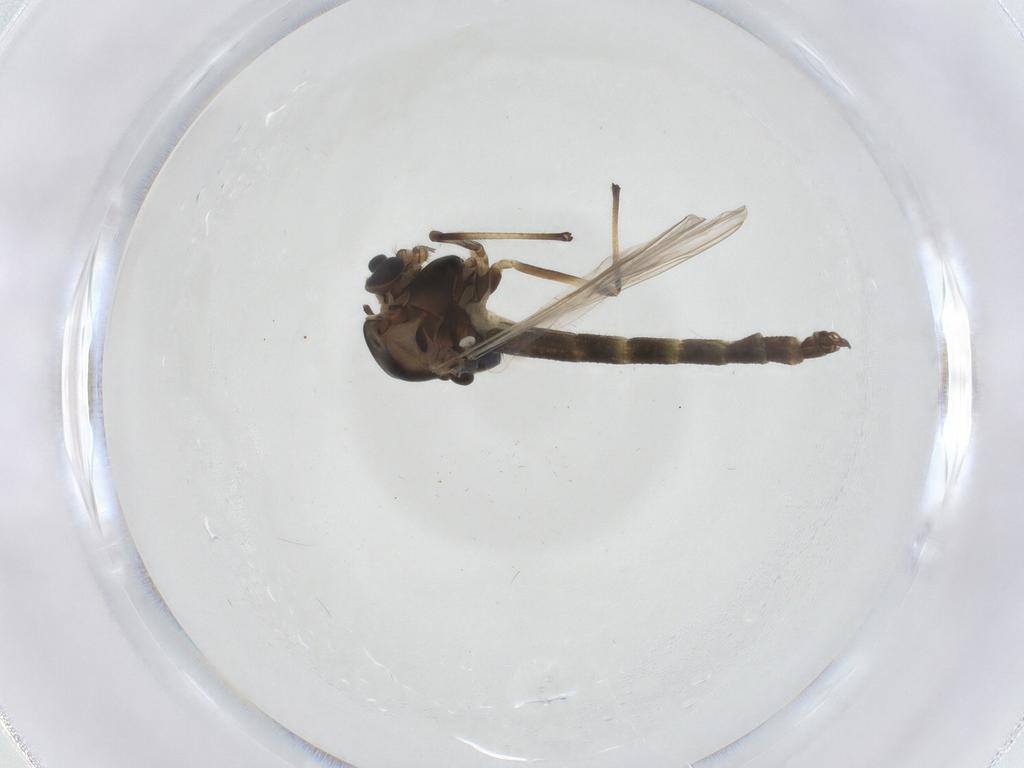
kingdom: Animalia
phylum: Arthropoda
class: Insecta
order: Diptera
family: Chironomidae
